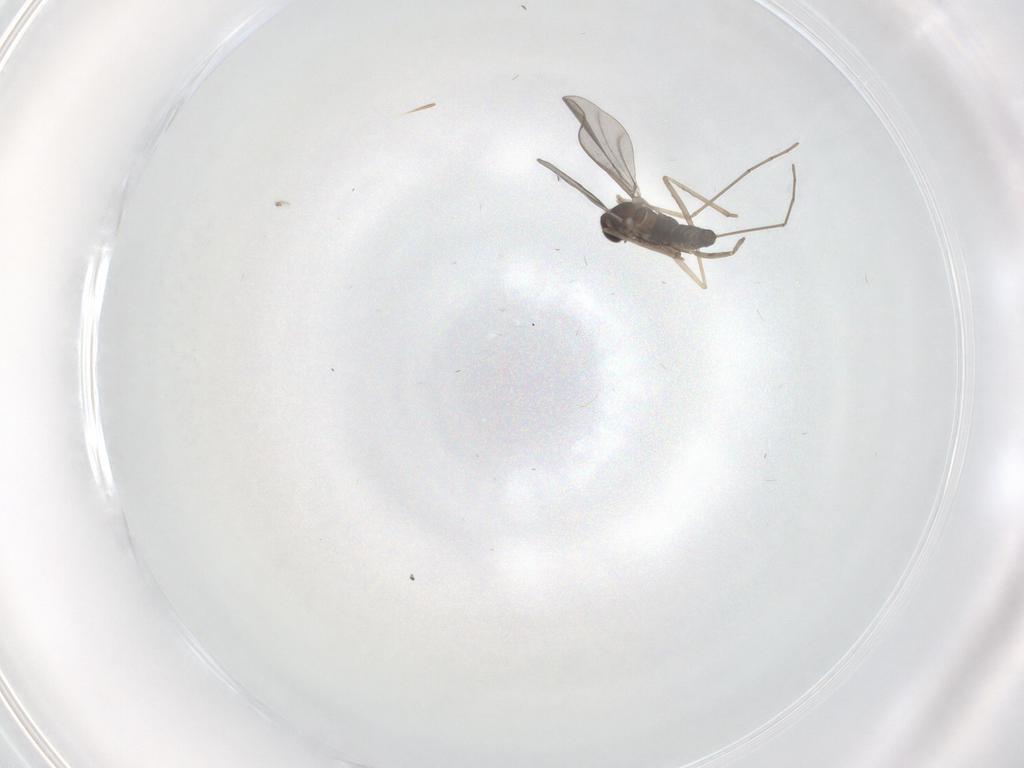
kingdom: Animalia
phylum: Arthropoda
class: Insecta
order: Diptera
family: Cecidomyiidae
